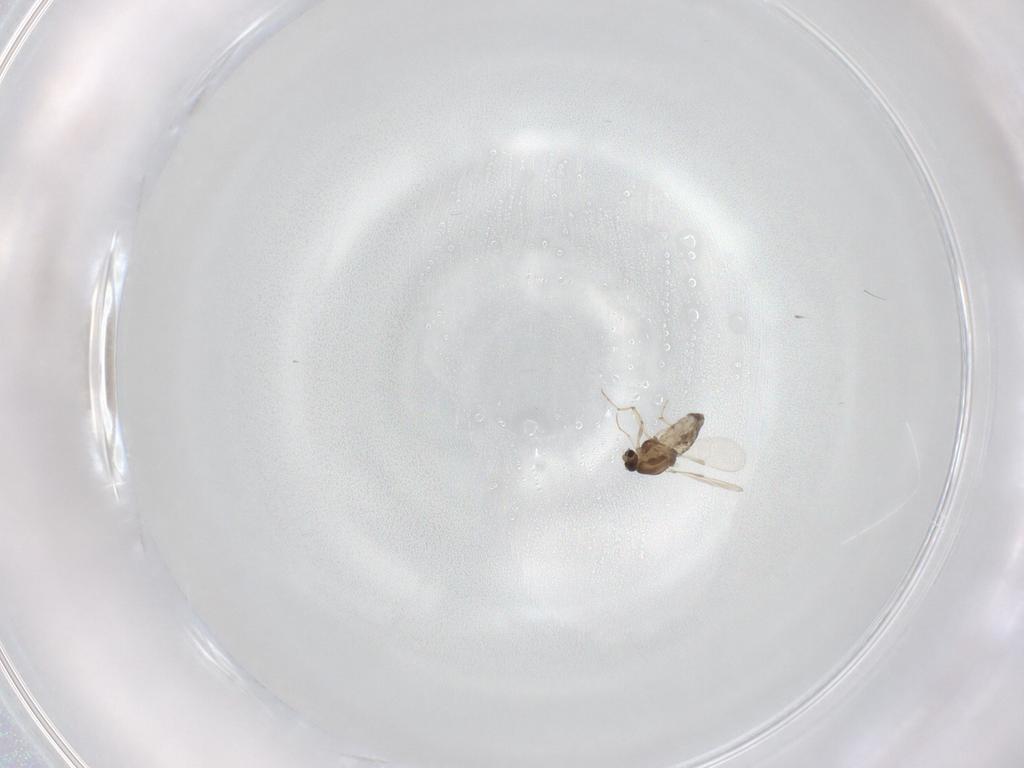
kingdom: Animalia
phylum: Arthropoda
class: Insecta
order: Diptera
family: Chironomidae
